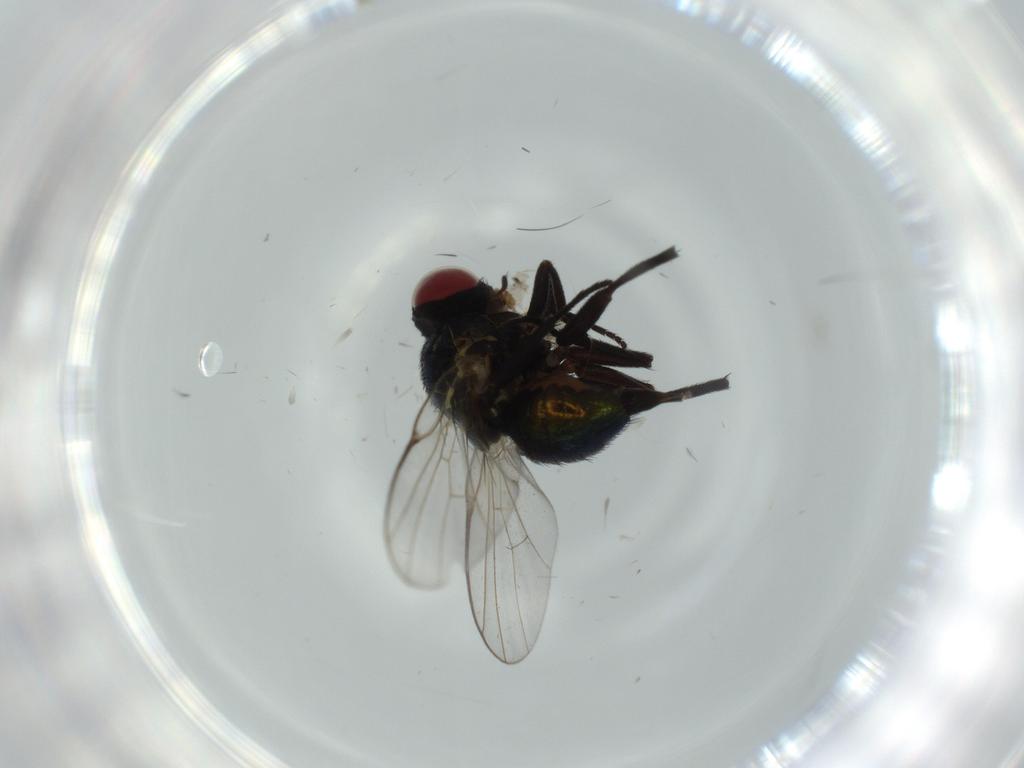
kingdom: Animalia
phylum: Arthropoda
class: Insecta
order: Diptera
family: Agromyzidae
